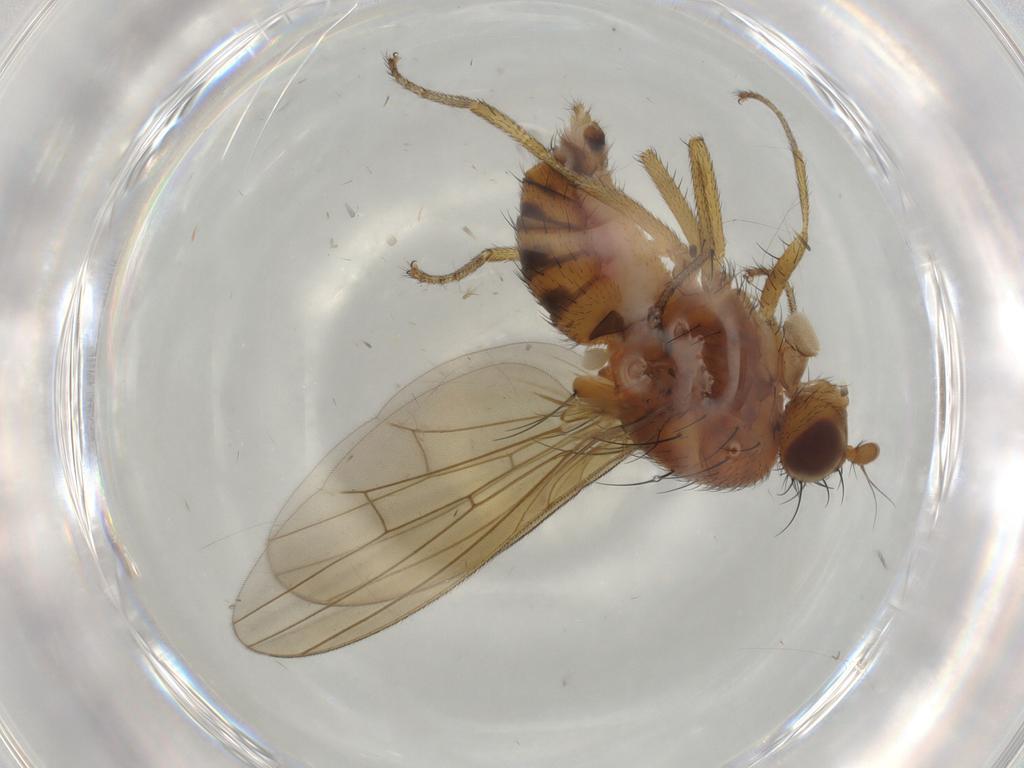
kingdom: Animalia
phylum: Arthropoda
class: Insecta
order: Diptera
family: Lauxaniidae
